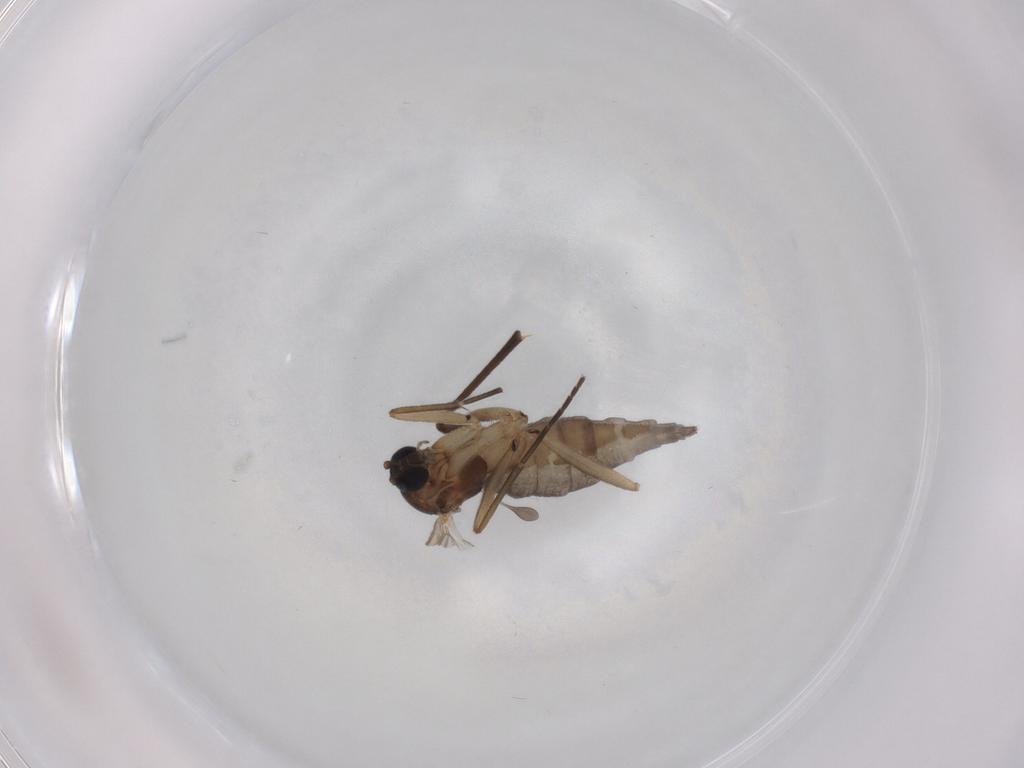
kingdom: Animalia
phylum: Arthropoda
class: Insecta
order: Diptera
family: Sciaridae
